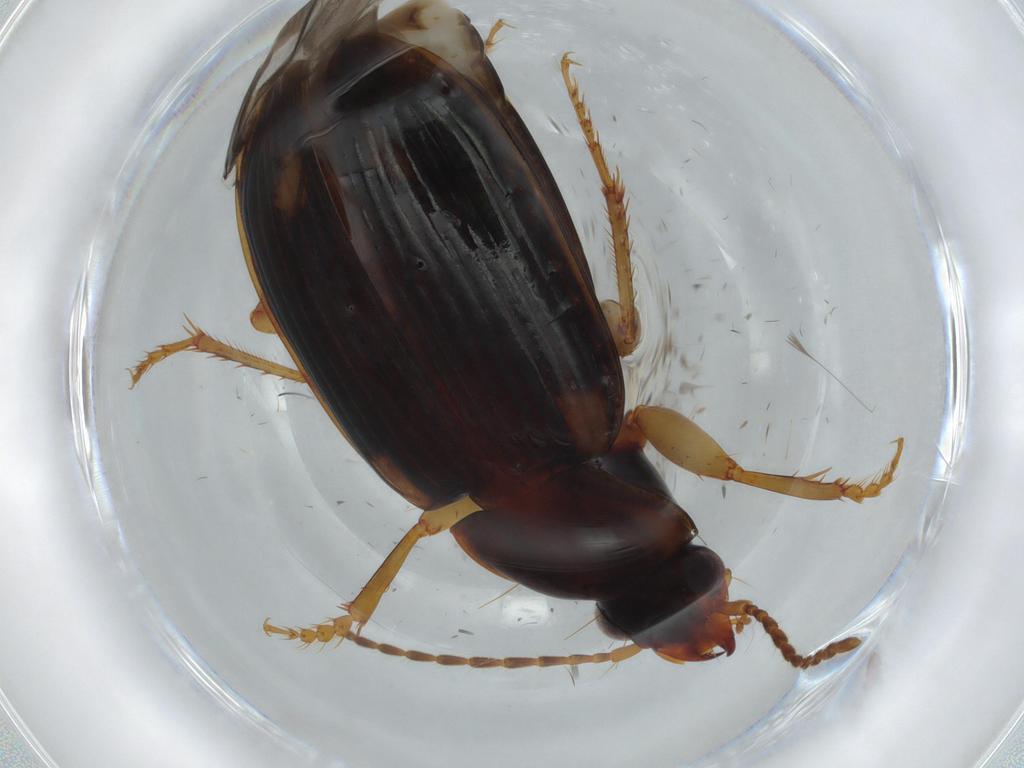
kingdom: Animalia
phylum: Arthropoda
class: Insecta
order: Coleoptera
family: Carabidae
